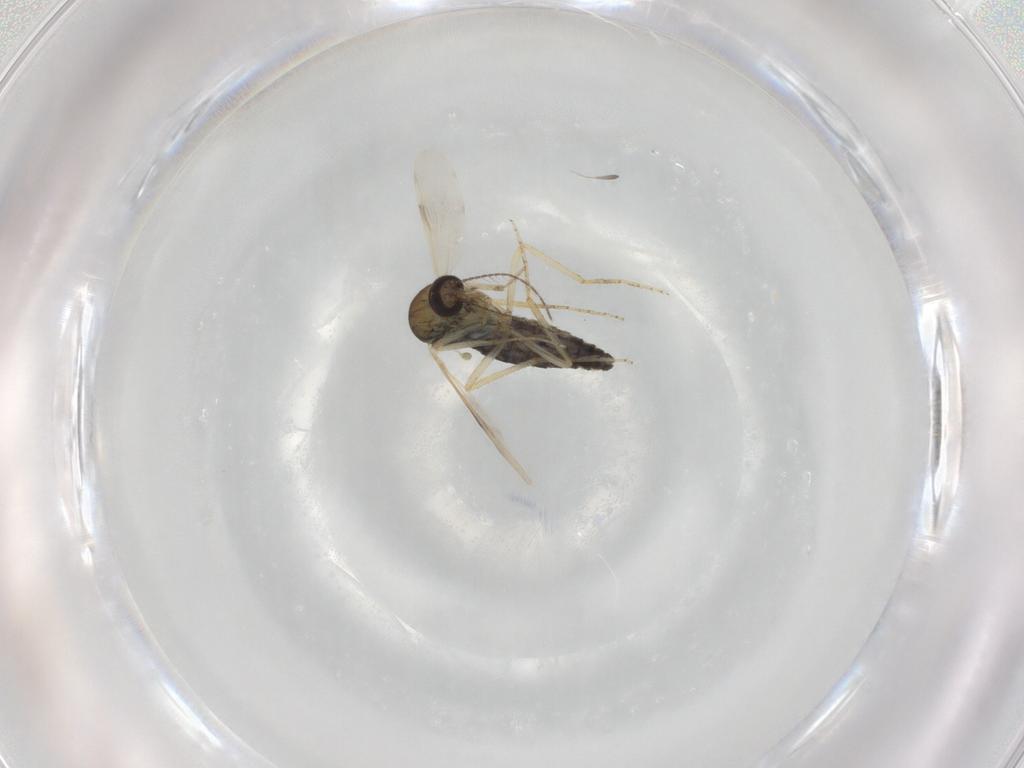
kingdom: Animalia
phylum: Arthropoda
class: Insecta
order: Diptera
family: Ceratopogonidae
